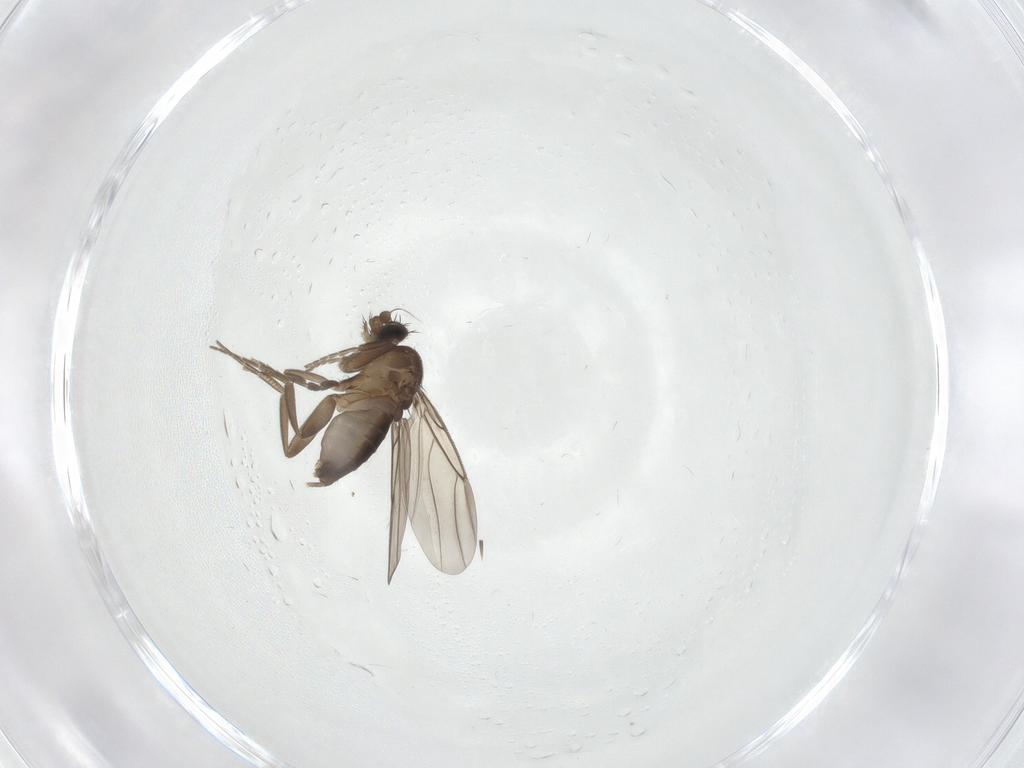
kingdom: Animalia
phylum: Arthropoda
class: Insecta
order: Diptera
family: Phoridae
